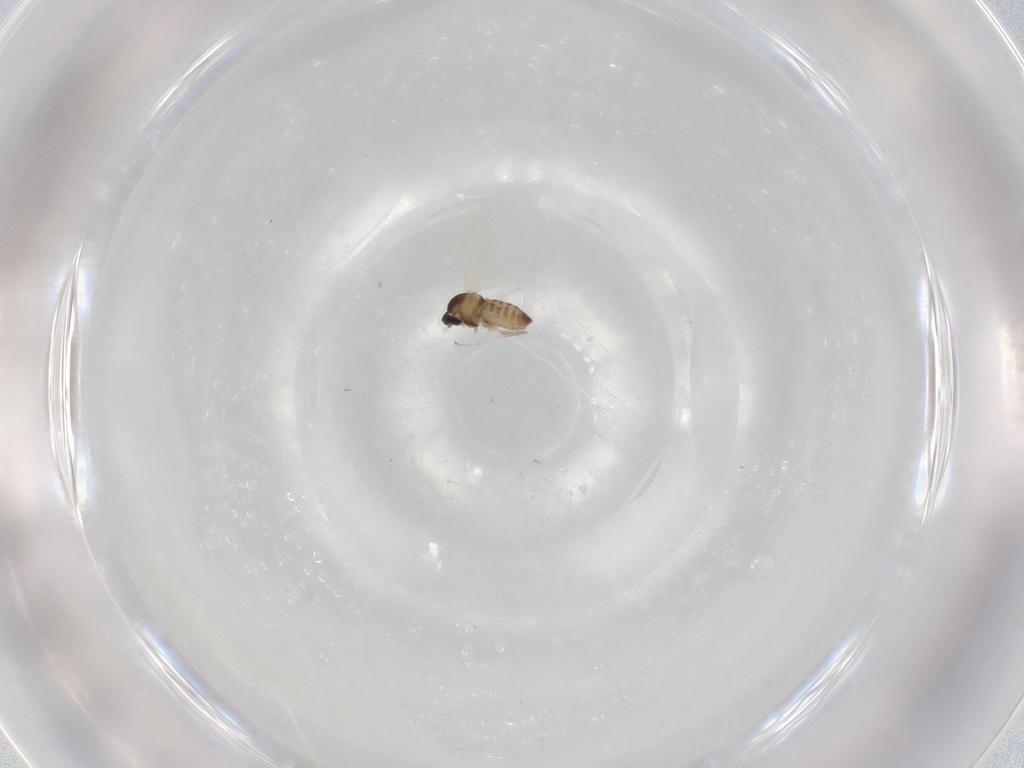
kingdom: Animalia
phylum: Arthropoda
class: Insecta
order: Diptera
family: Cecidomyiidae
